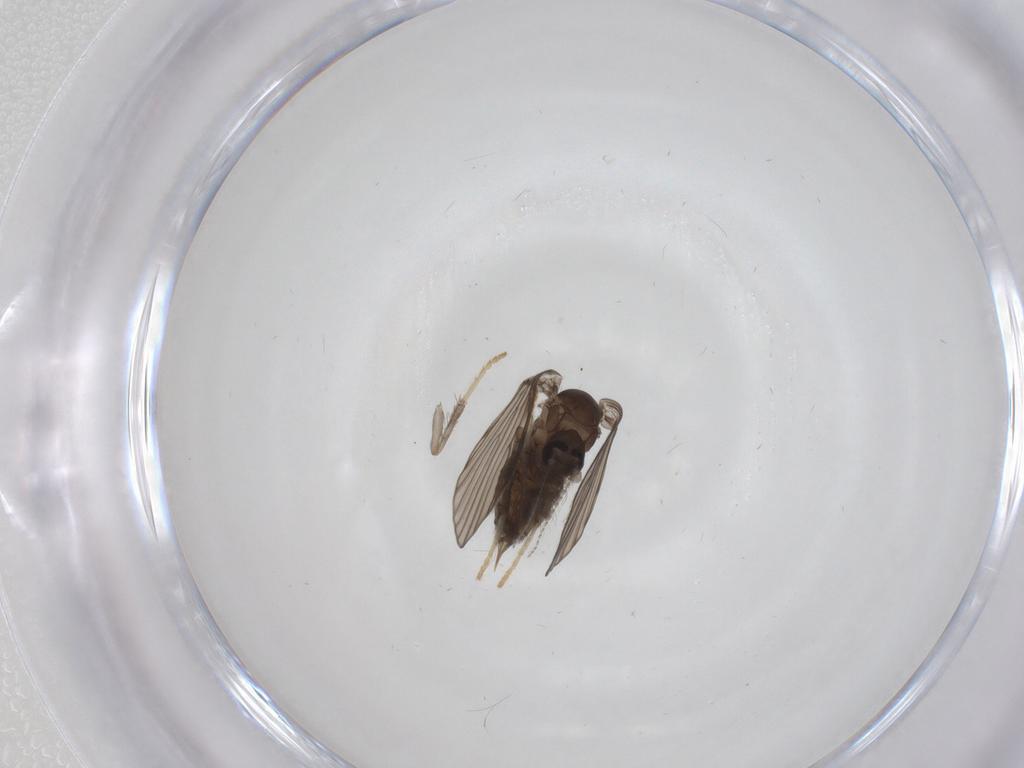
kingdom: Animalia
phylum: Arthropoda
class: Insecta
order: Diptera
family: Psychodidae
